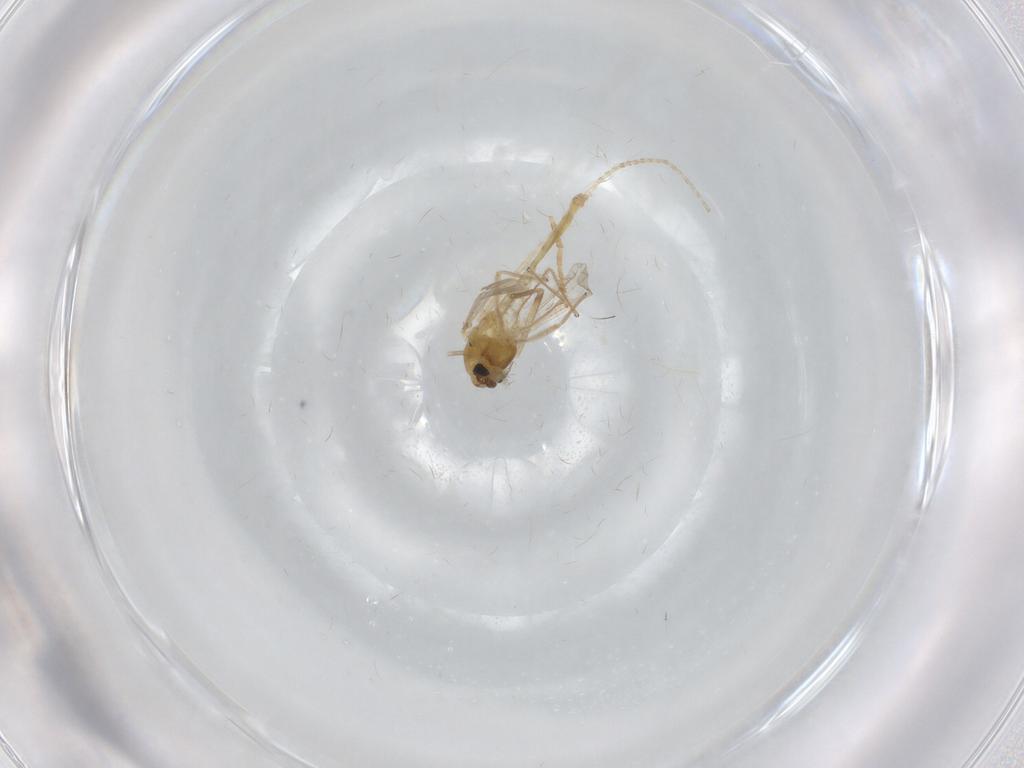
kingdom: Animalia
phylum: Arthropoda
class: Insecta
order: Diptera
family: Chironomidae
